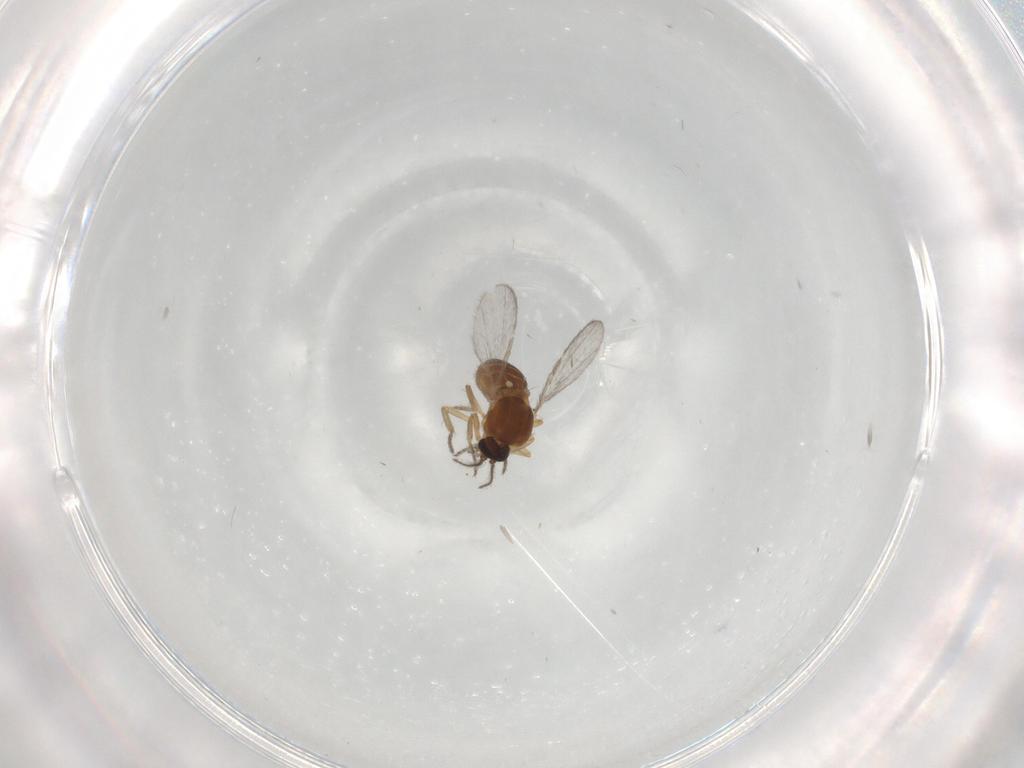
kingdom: Animalia
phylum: Arthropoda
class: Insecta
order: Diptera
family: Ceratopogonidae
